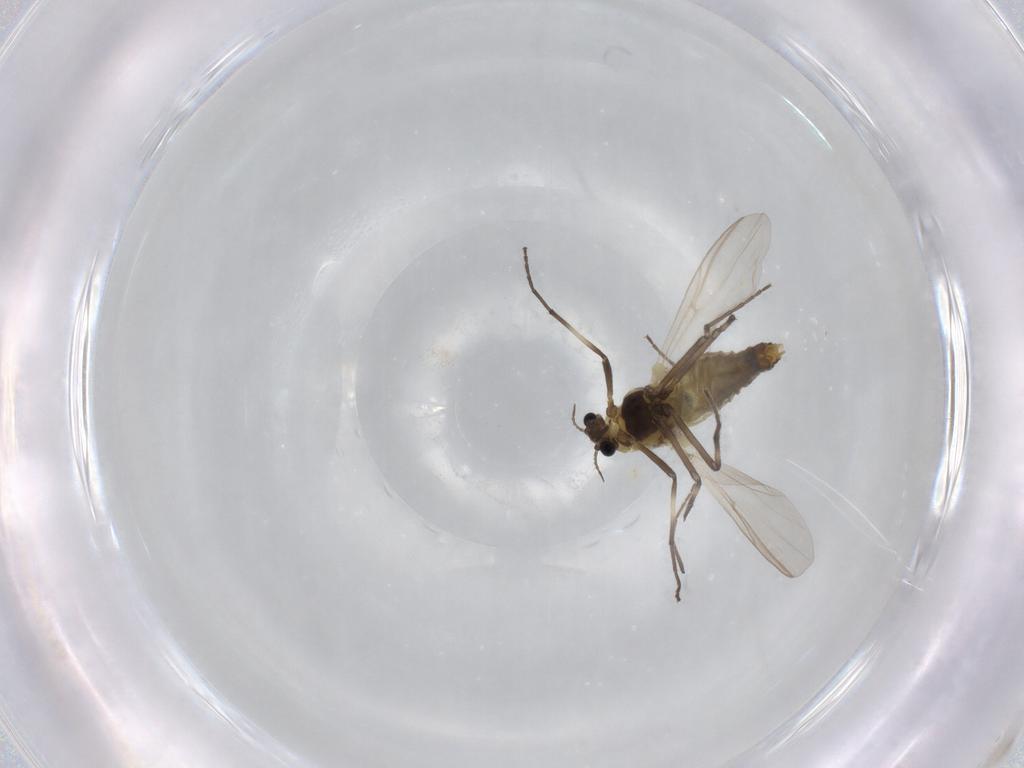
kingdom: Animalia
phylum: Arthropoda
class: Insecta
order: Diptera
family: Chironomidae
